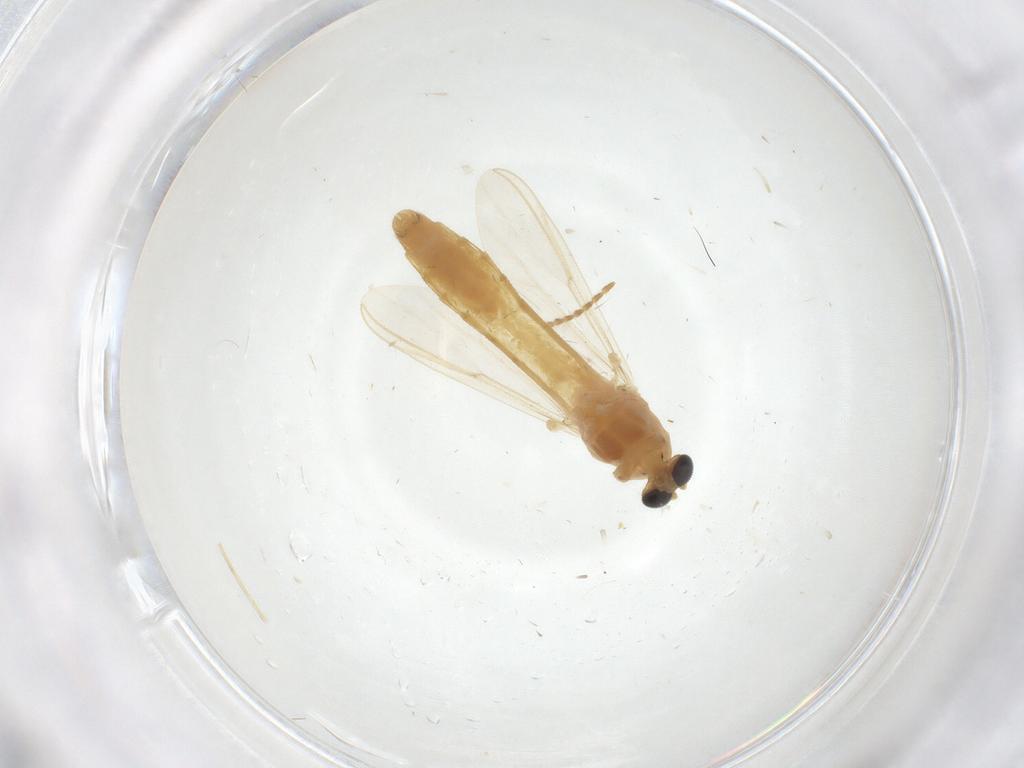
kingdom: Animalia
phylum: Arthropoda
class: Insecta
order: Diptera
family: Chironomidae
